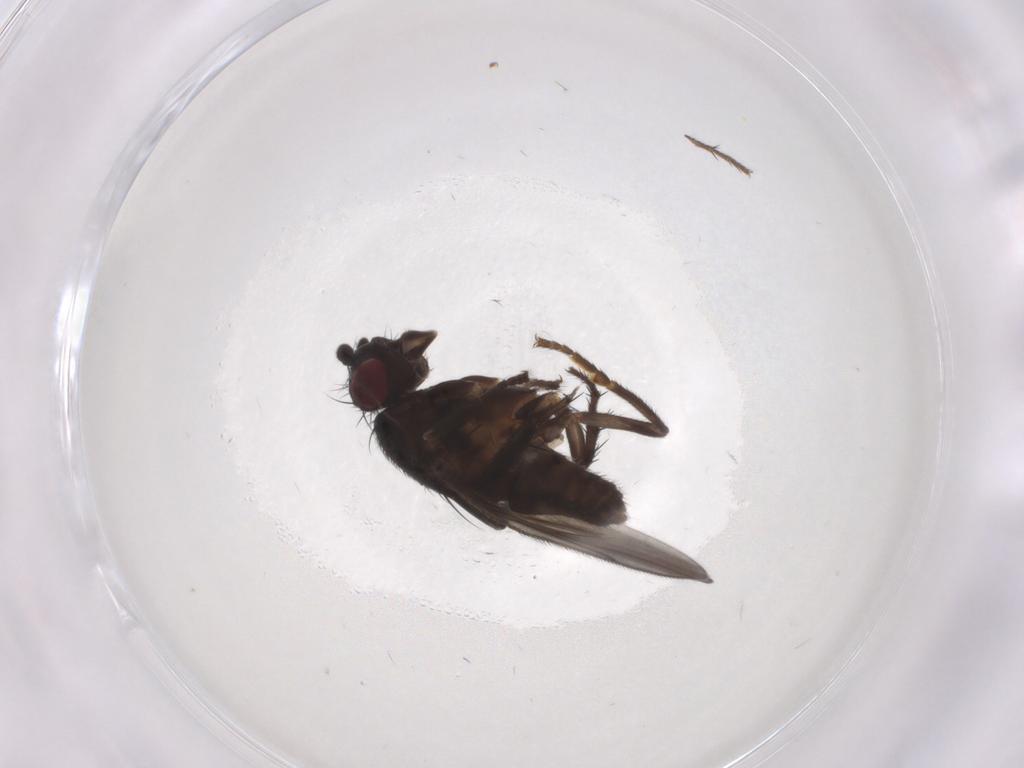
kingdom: Animalia
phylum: Arthropoda
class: Insecta
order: Diptera
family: Sphaeroceridae
